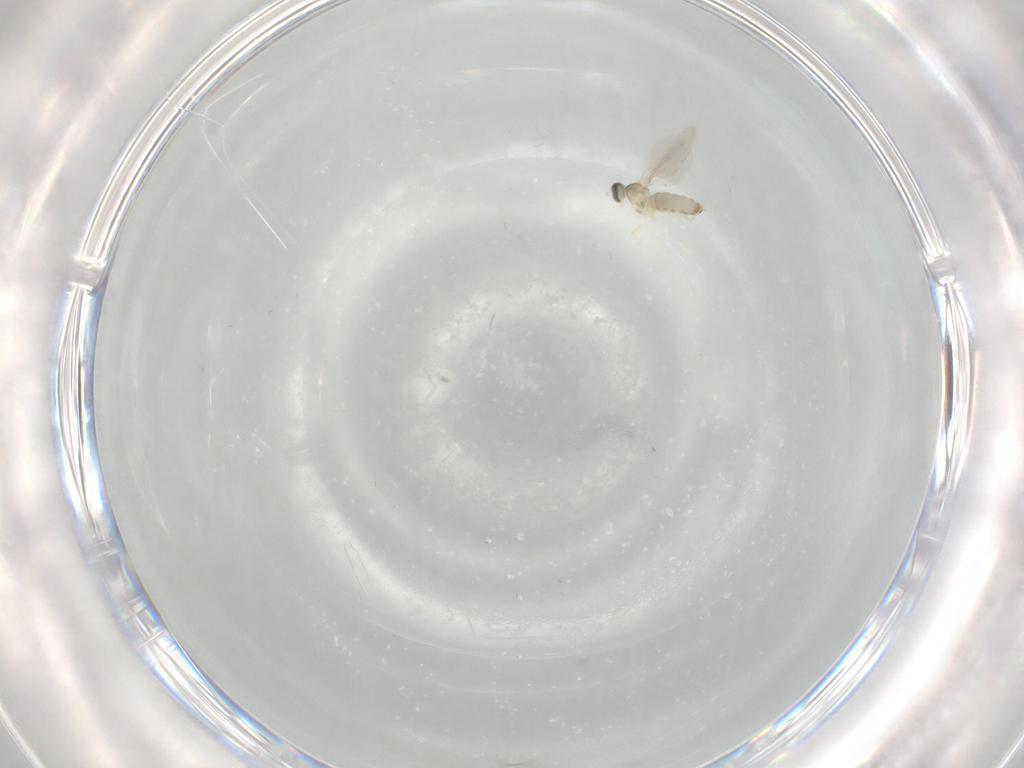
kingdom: Animalia
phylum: Arthropoda
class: Insecta
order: Diptera
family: Cecidomyiidae
